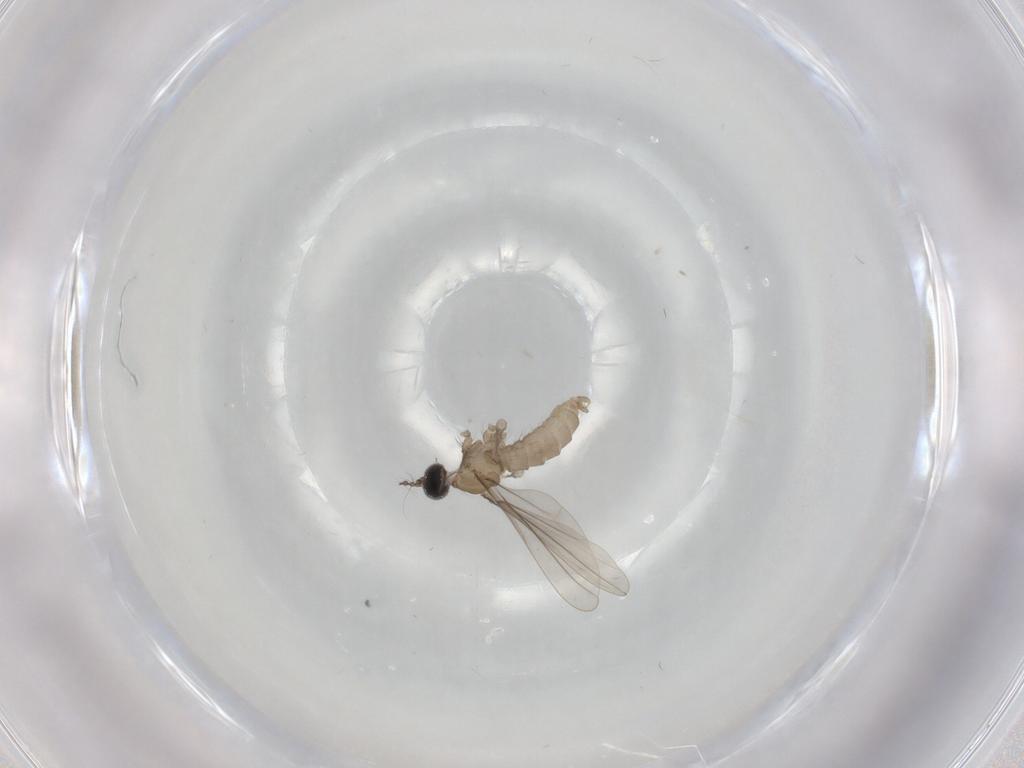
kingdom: Animalia
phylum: Arthropoda
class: Insecta
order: Diptera
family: Cecidomyiidae
